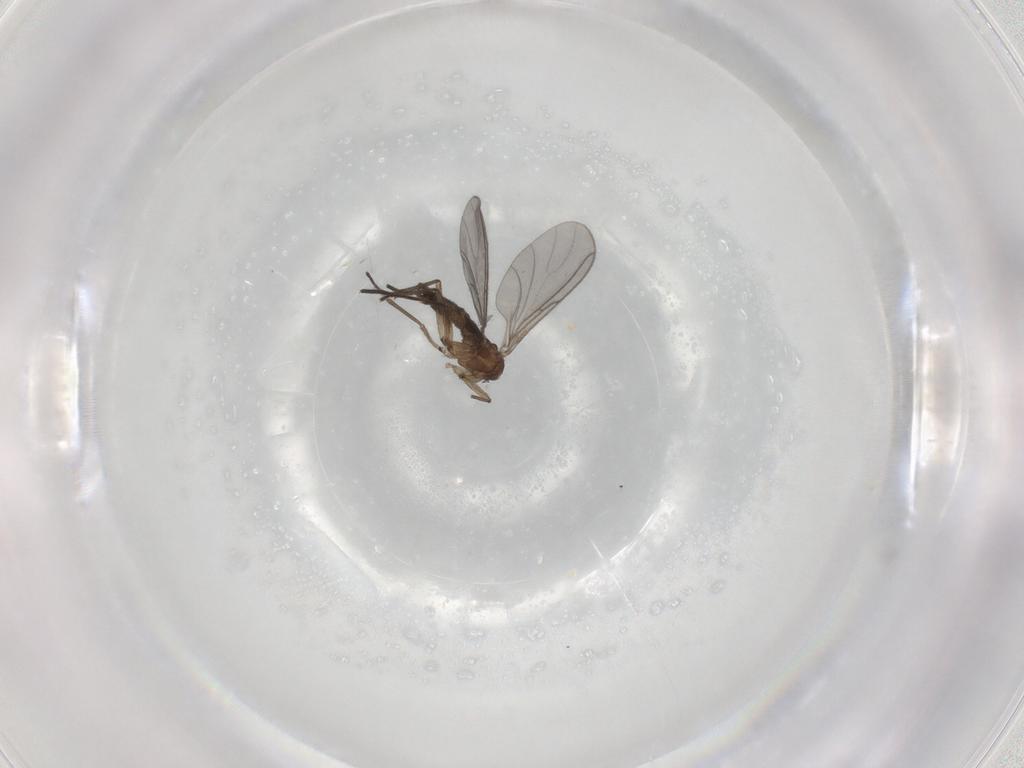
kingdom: Animalia
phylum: Arthropoda
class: Insecta
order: Diptera
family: Sciaridae
